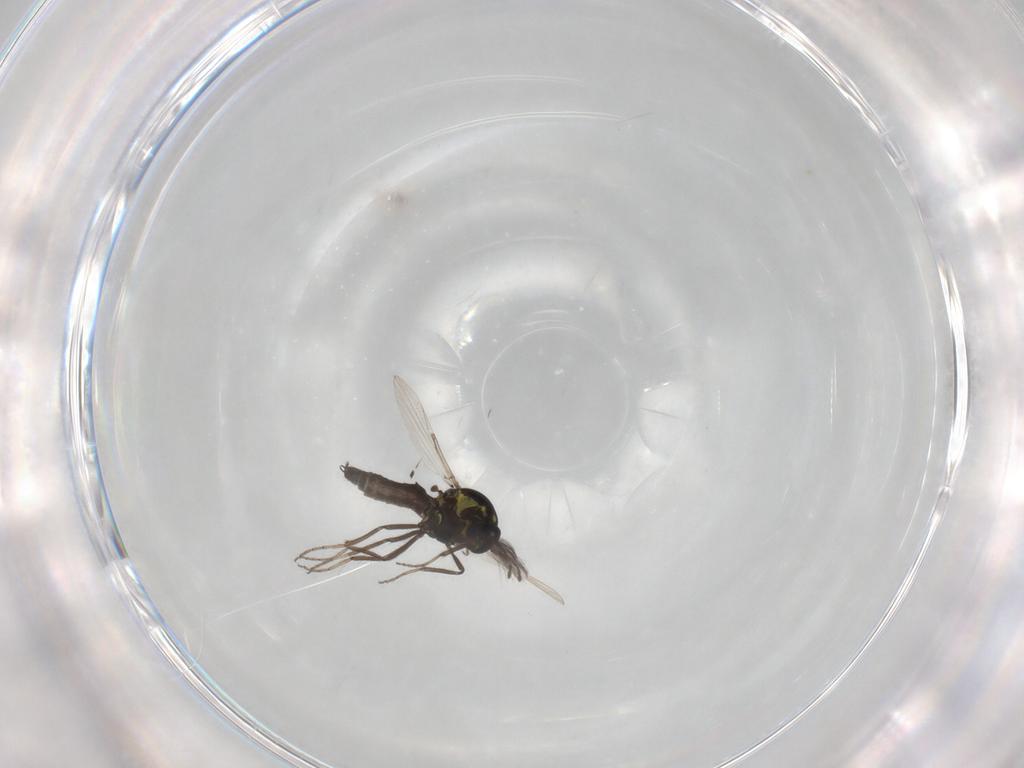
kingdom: Animalia
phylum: Arthropoda
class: Insecta
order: Diptera
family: Ceratopogonidae
